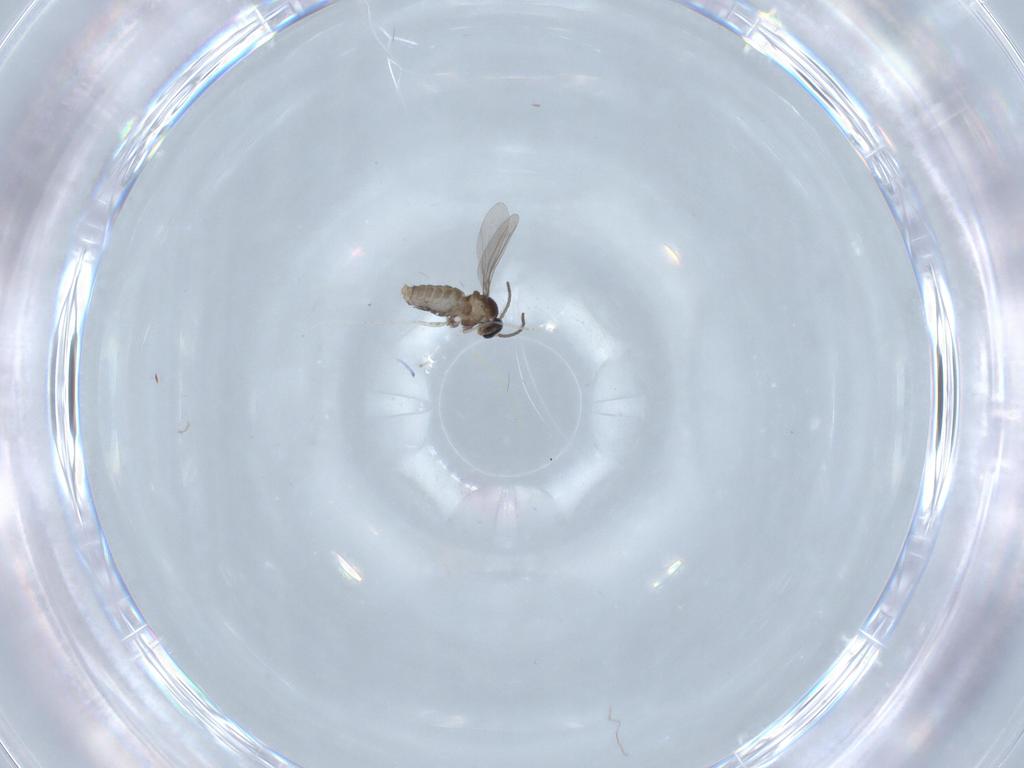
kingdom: Animalia
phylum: Arthropoda
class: Insecta
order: Diptera
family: Cecidomyiidae
